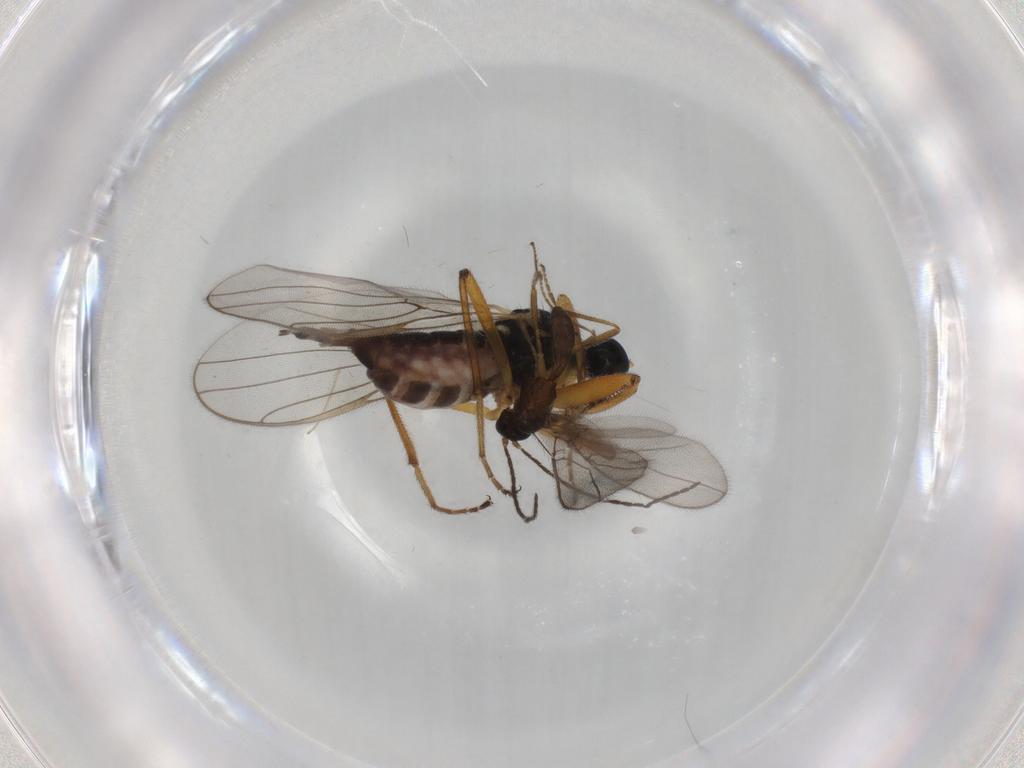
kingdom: Animalia
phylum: Arthropoda
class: Insecta
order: Diptera
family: Hybotidae
